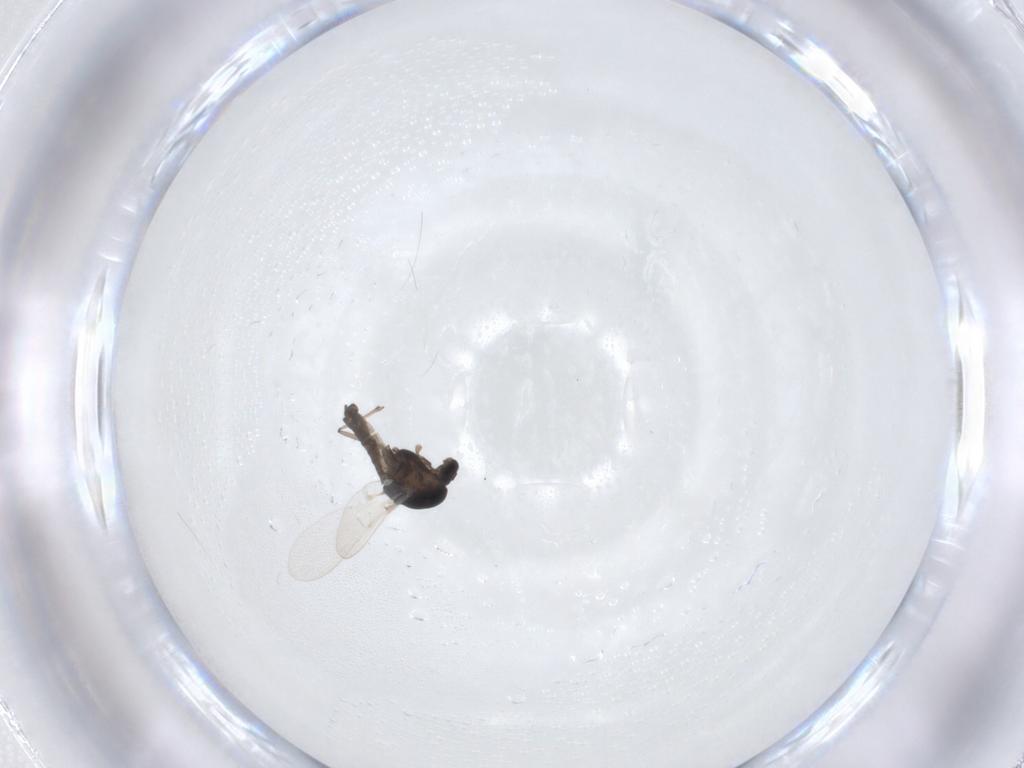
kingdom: Animalia
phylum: Arthropoda
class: Insecta
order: Diptera
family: Ceratopogonidae
